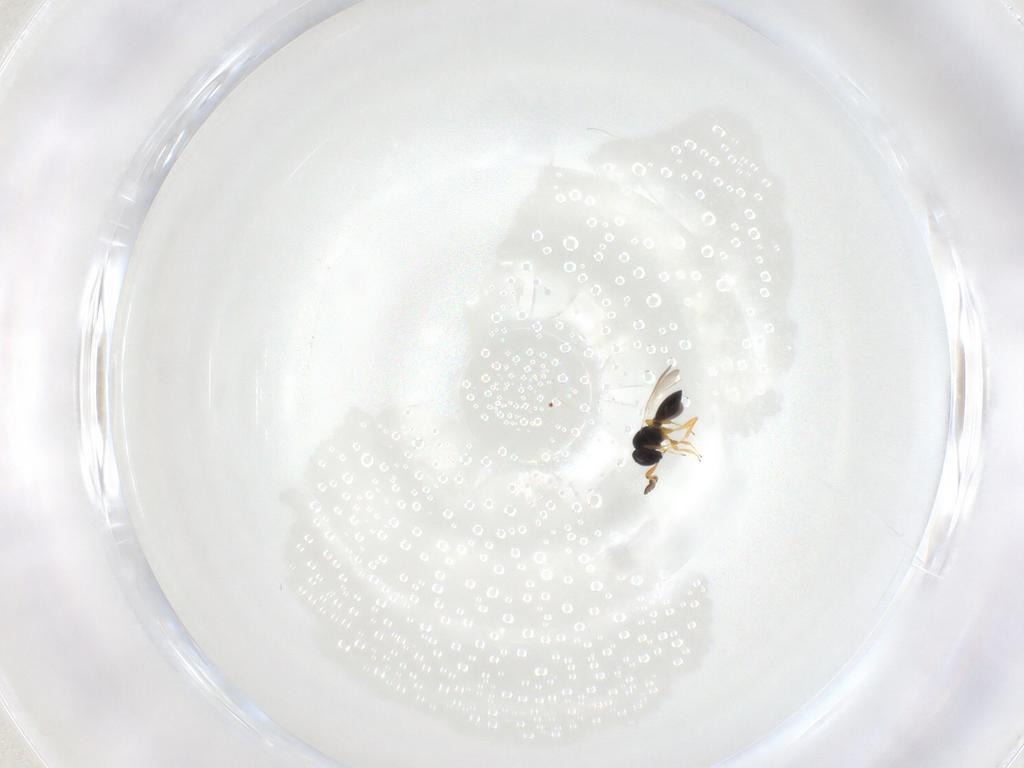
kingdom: Animalia
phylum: Arthropoda
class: Insecta
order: Hymenoptera
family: Platygastridae
